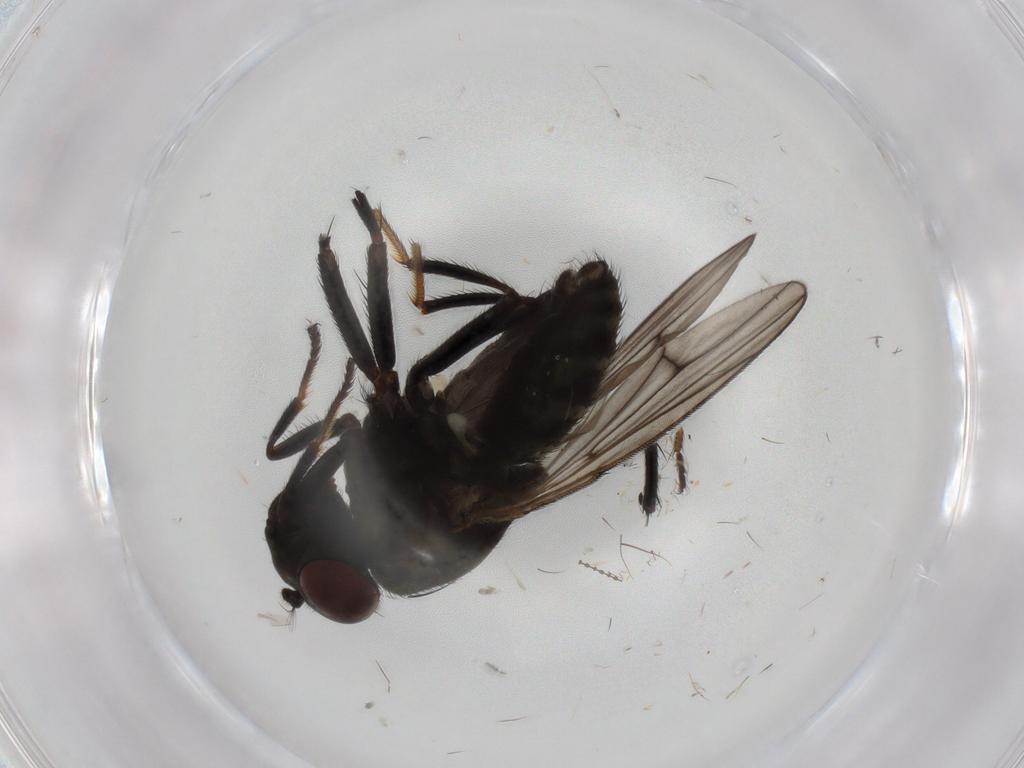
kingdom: Animalia
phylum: Arthropoda
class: Insecta
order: Diptera
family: Ephydridae
